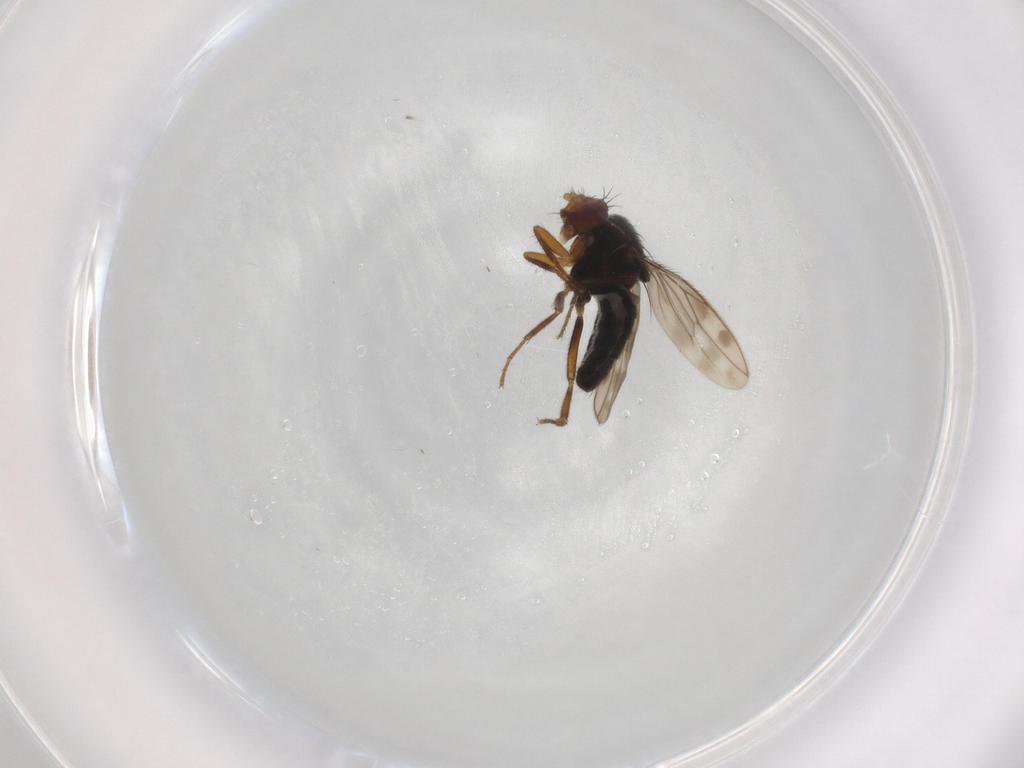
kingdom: Animalia
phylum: Arthropoda
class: Insecta
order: Diptera
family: Sphaeroceridae
